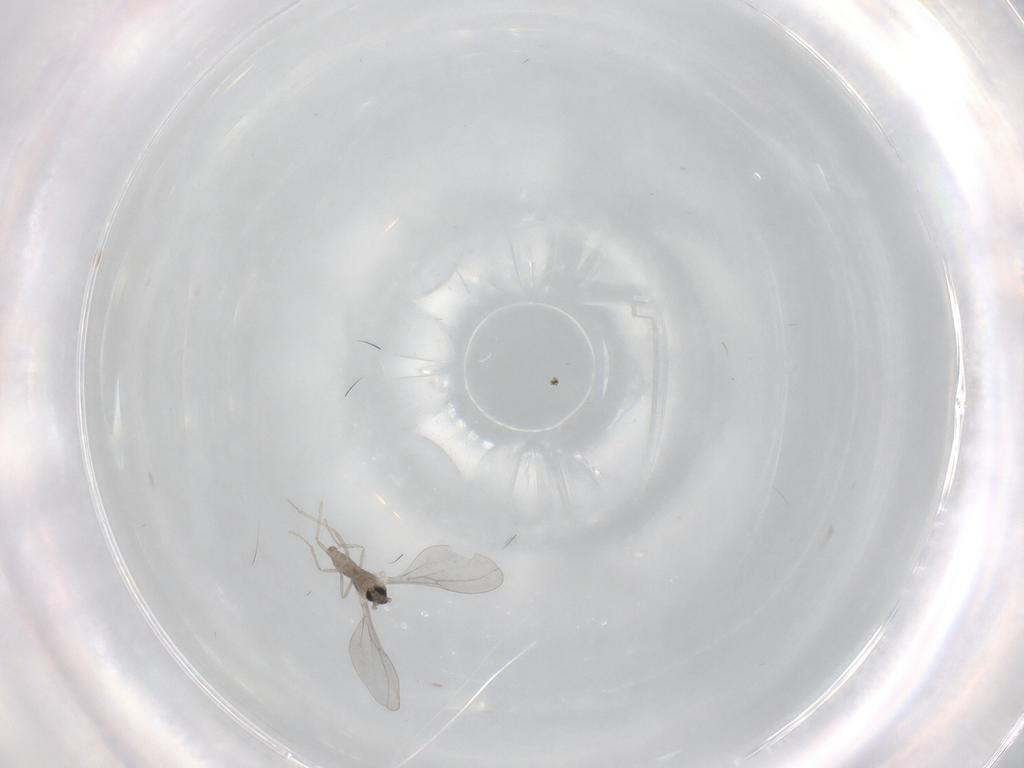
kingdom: Animalia
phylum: Arthropoda
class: Insecta
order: Diptera
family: Cecidomyiidae
